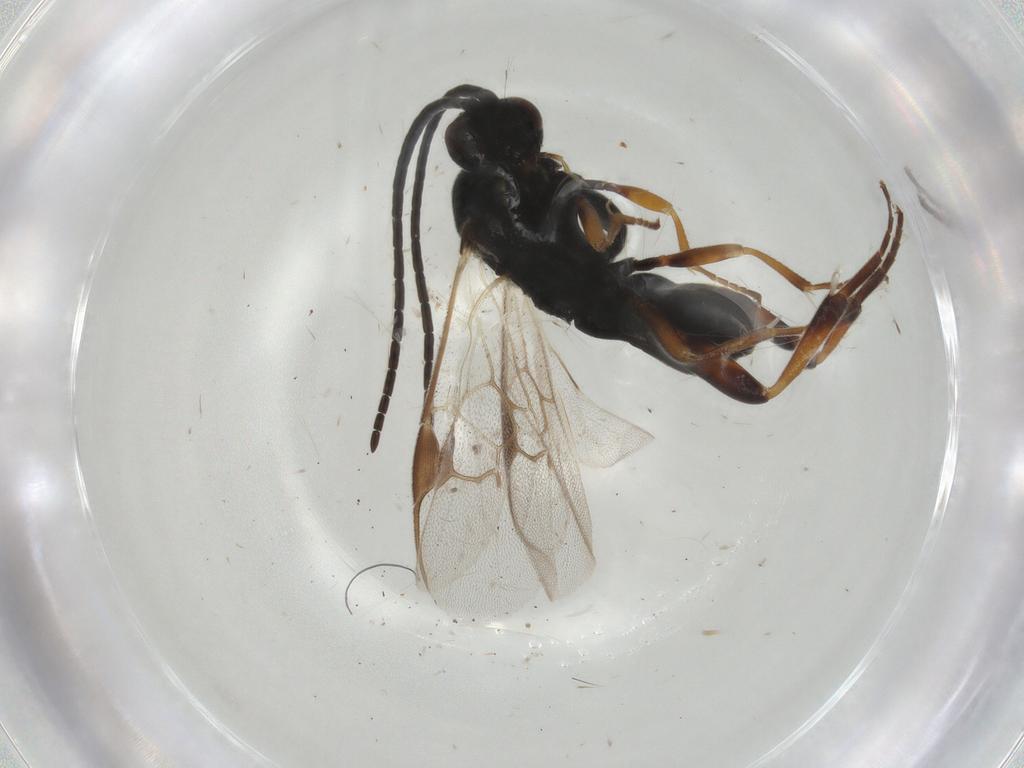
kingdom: Animalia
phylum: Arthropoda
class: Insecta
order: Hymenoptera
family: Braconidae
